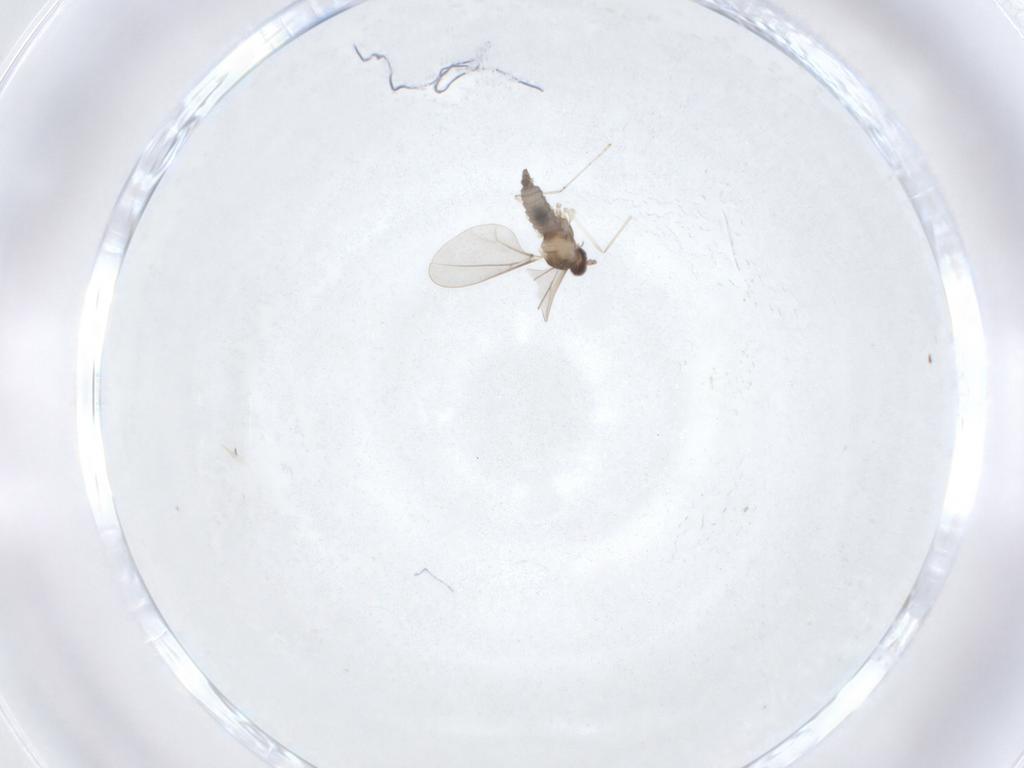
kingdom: Animalia
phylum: Arthropoda
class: Insecta
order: Diptera
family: Cecidomyiidae
